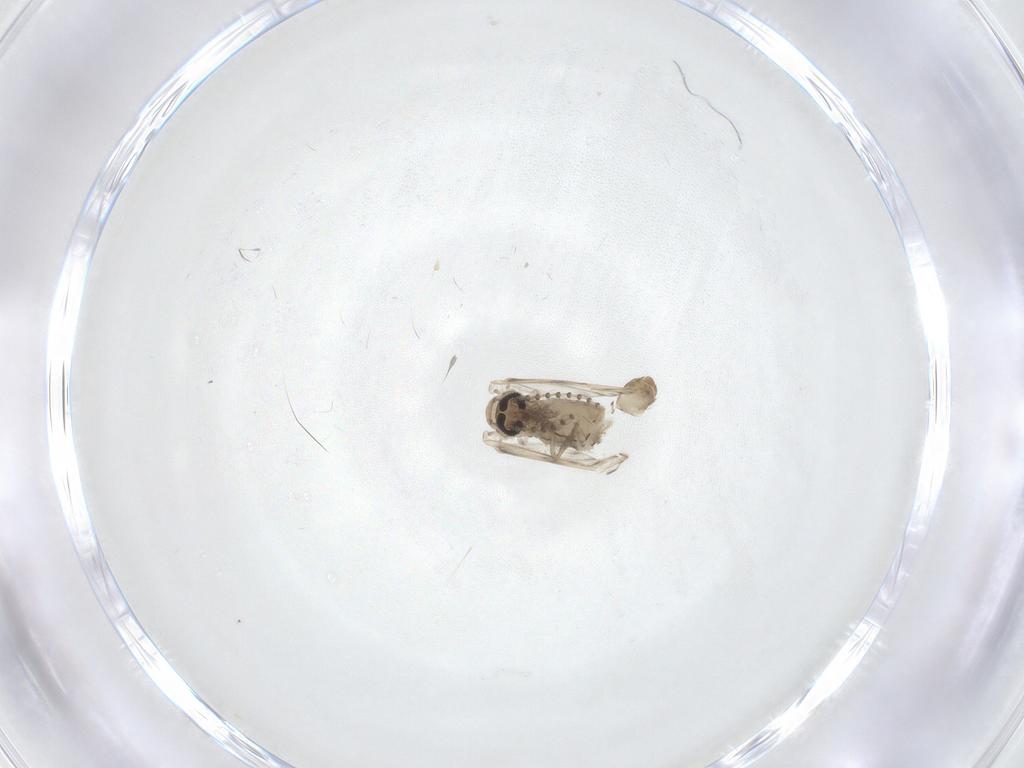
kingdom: Animalia
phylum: Arthropoda
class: Insecta
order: Diptera
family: Psychodidae
